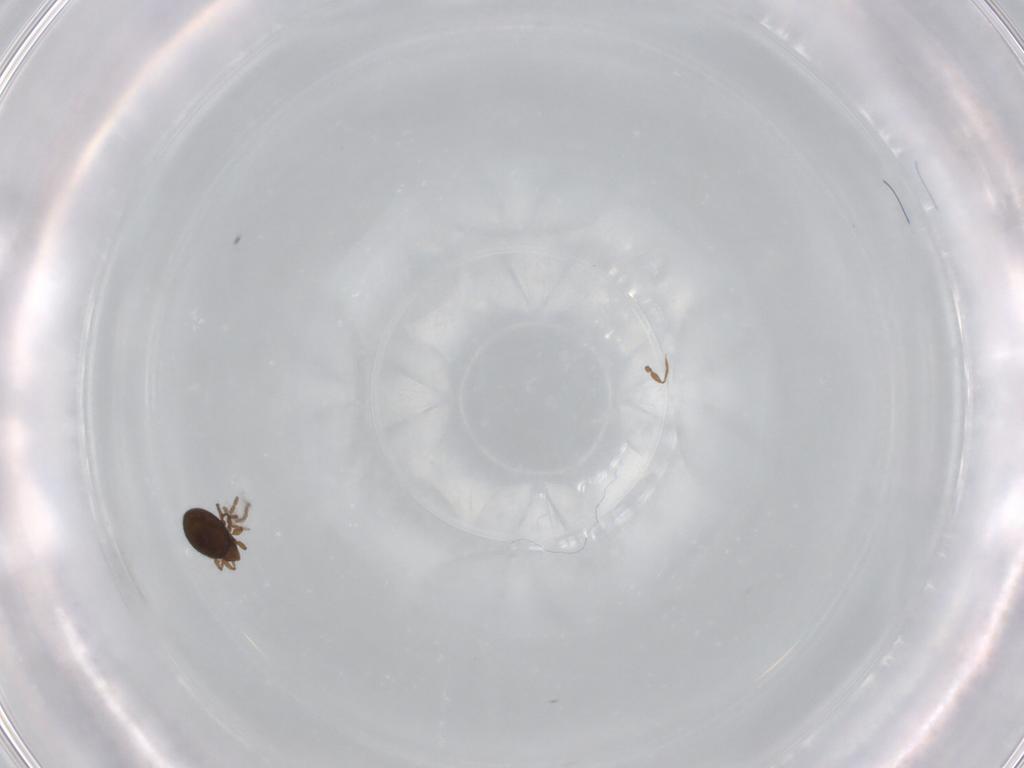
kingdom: Animalia
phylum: Arthropoda
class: Arachnida
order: Sarcoptiformes
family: Oribatulidae
